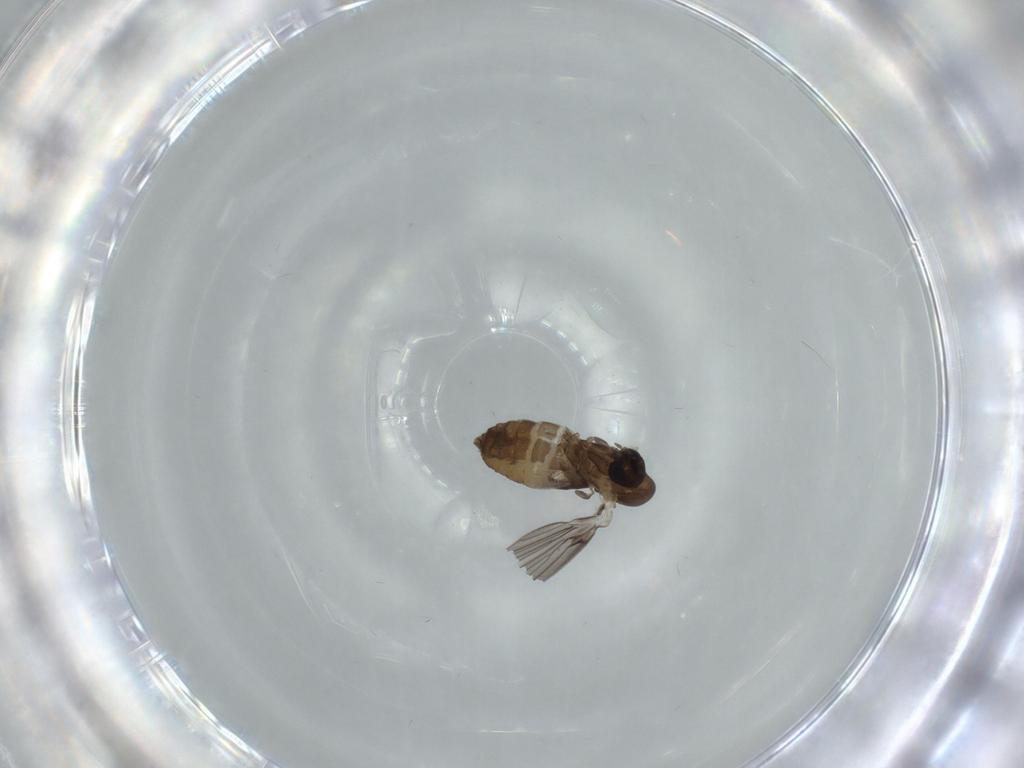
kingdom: Animalia
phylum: Arthropoda
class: Insecta
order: Diptera
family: Psychodidae
